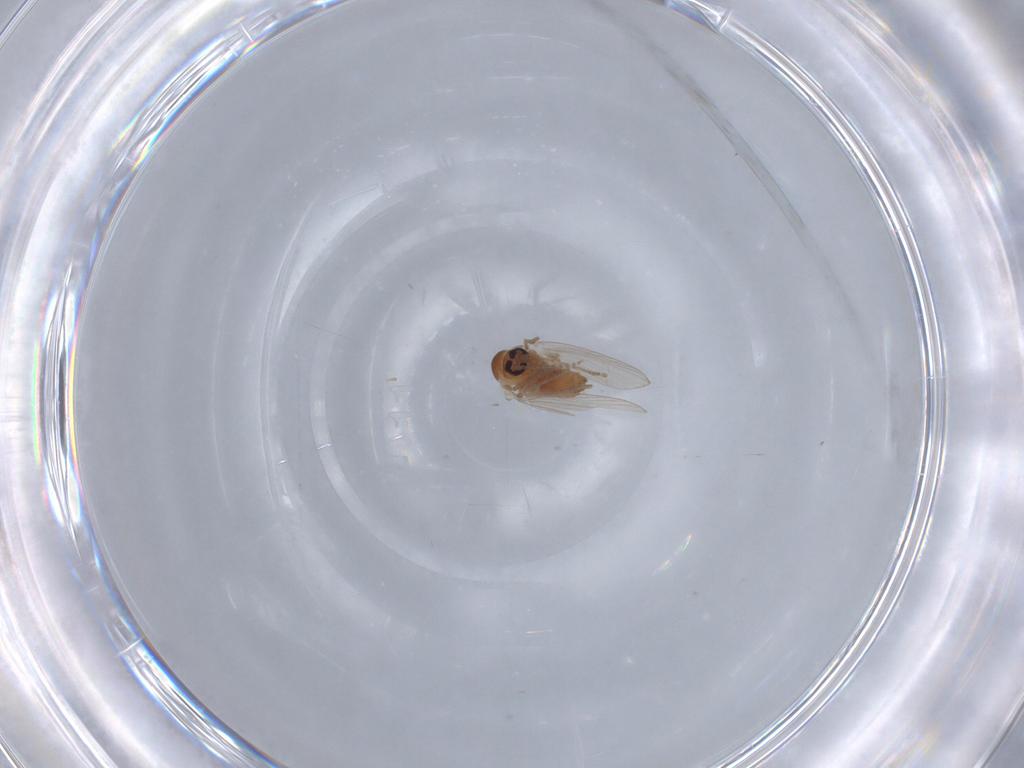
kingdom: Animalia
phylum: Arthropoda
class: Insecta
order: Diptera
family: Psychodidae
